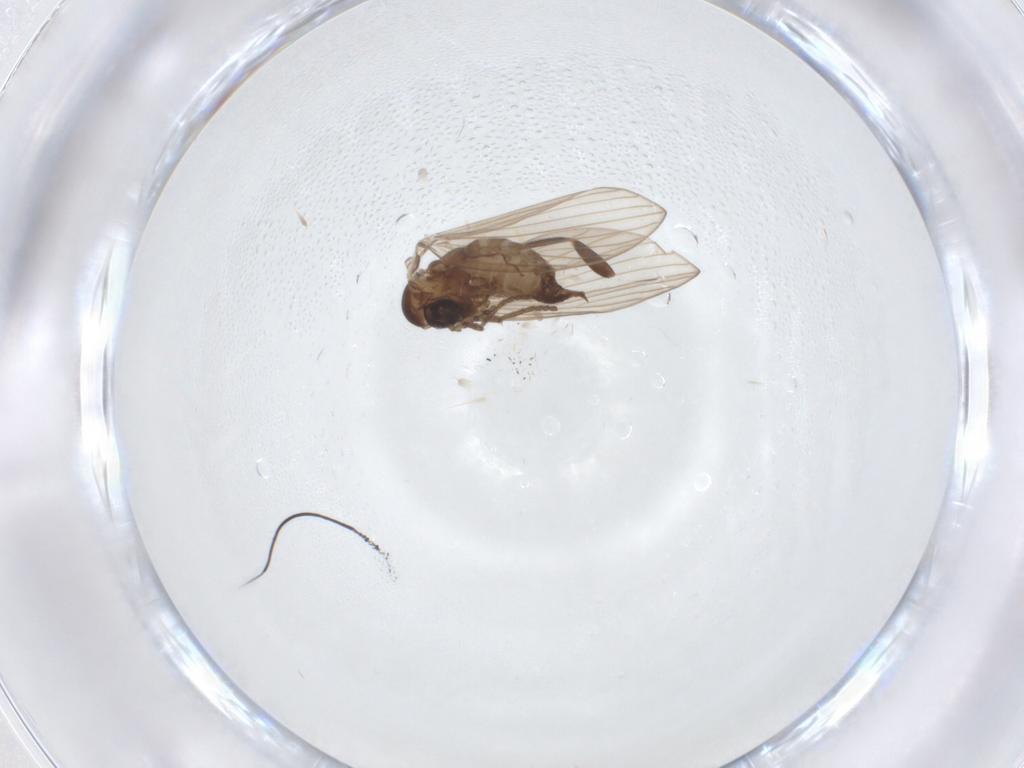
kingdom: Animalia
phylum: Arthropoda
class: Insecta
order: Diptera
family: Psychodidae
